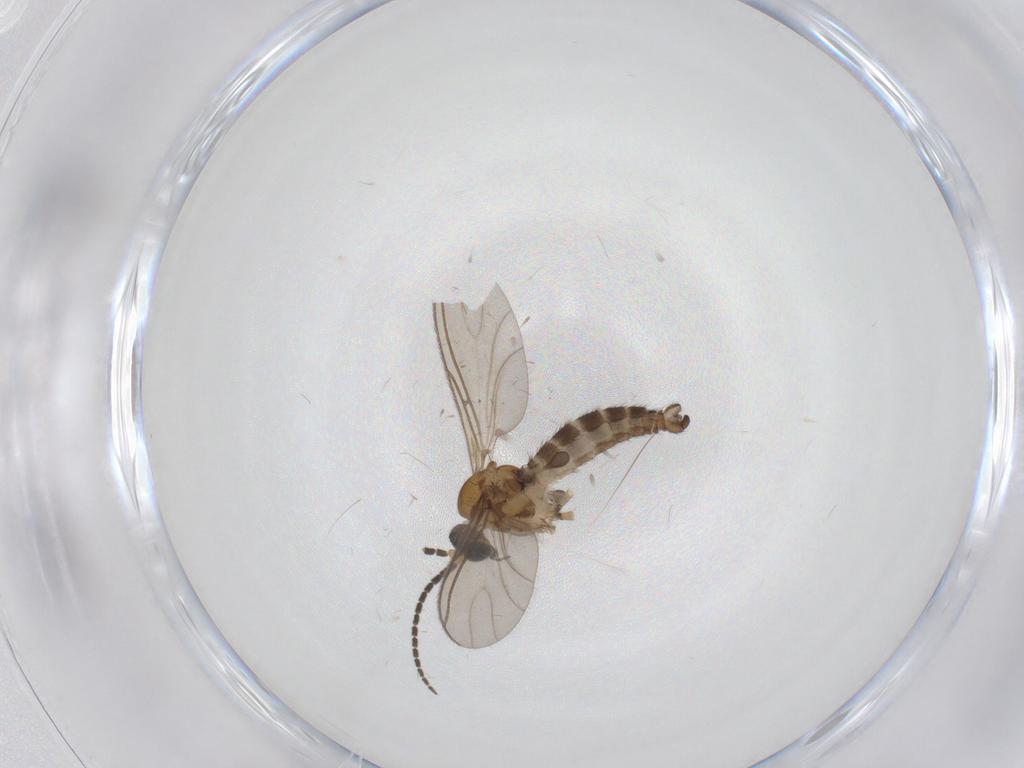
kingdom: Animalia
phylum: Arthropoda
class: Insecta
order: Diptera
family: Sciaridae
